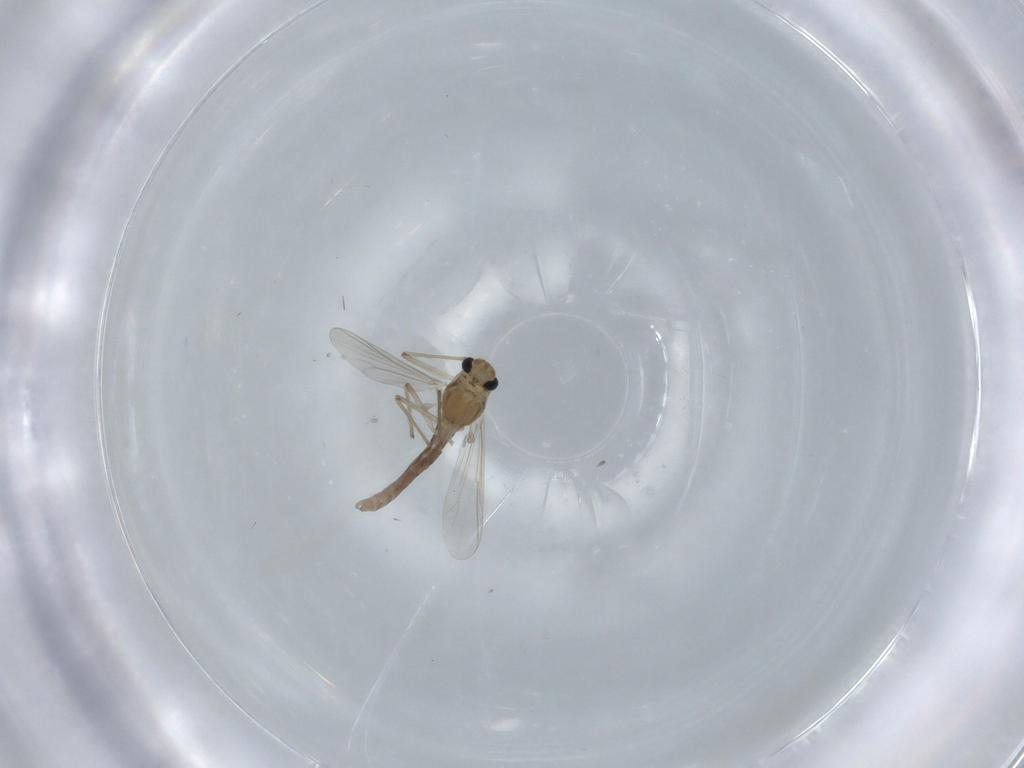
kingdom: Animalia
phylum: Arthropoda
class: Insecta
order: Diptera
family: Chironomidae
